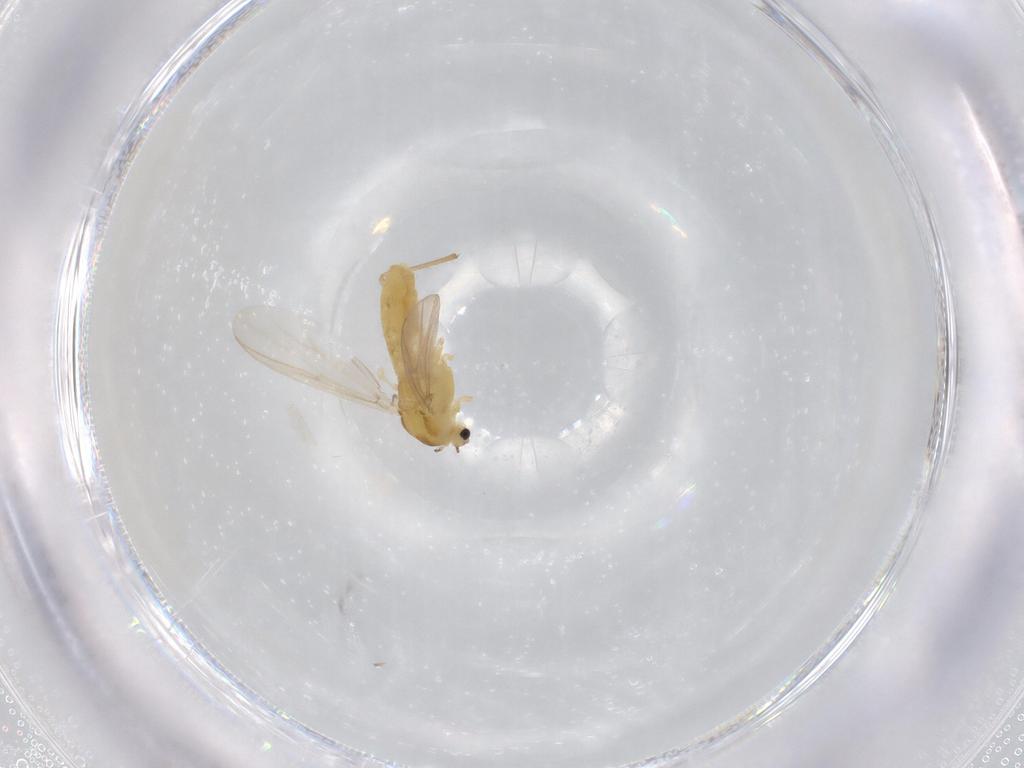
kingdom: Animalia
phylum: Arthropoda
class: Insecta
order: Diptera
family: Chironomidae
